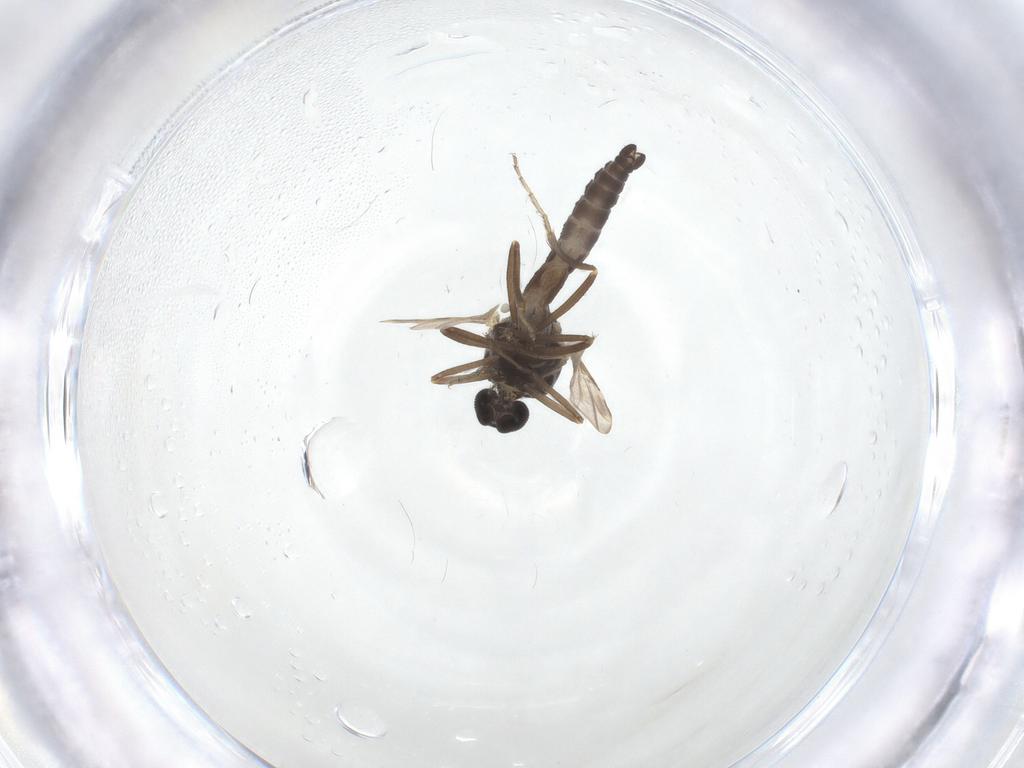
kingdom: Animalia
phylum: Arthropoda
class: Insecta
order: Diptera
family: Ceratopogonidae
